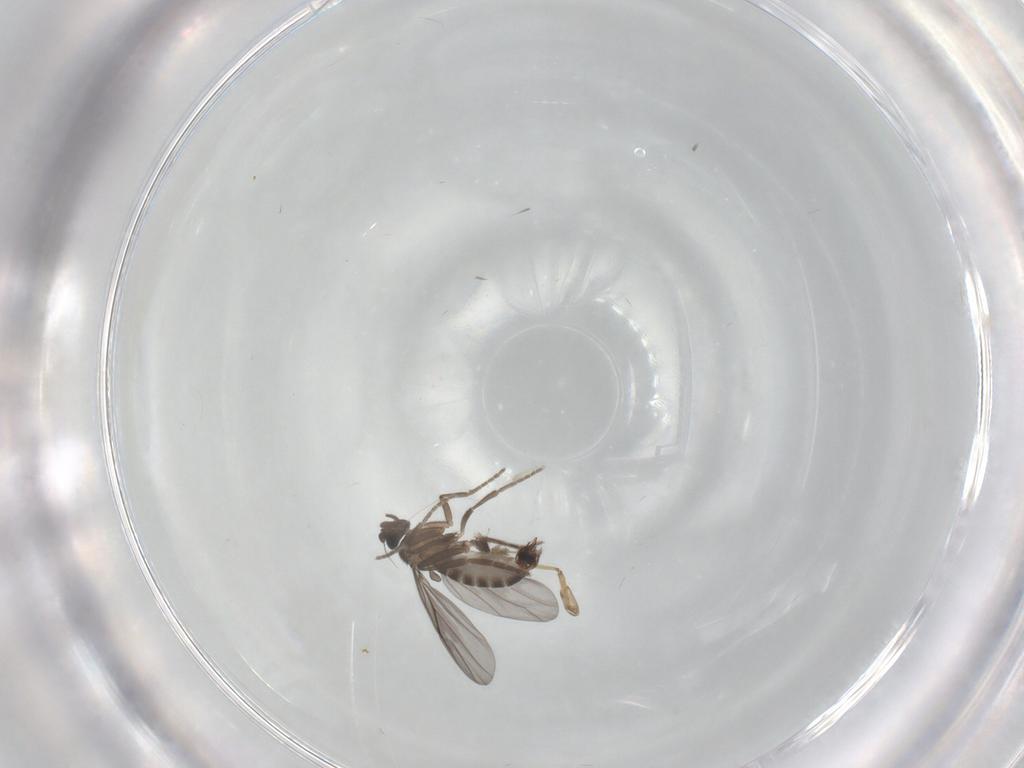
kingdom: Animalia
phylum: Arthropoda
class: Insecta
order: Diptera
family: Phoridae
